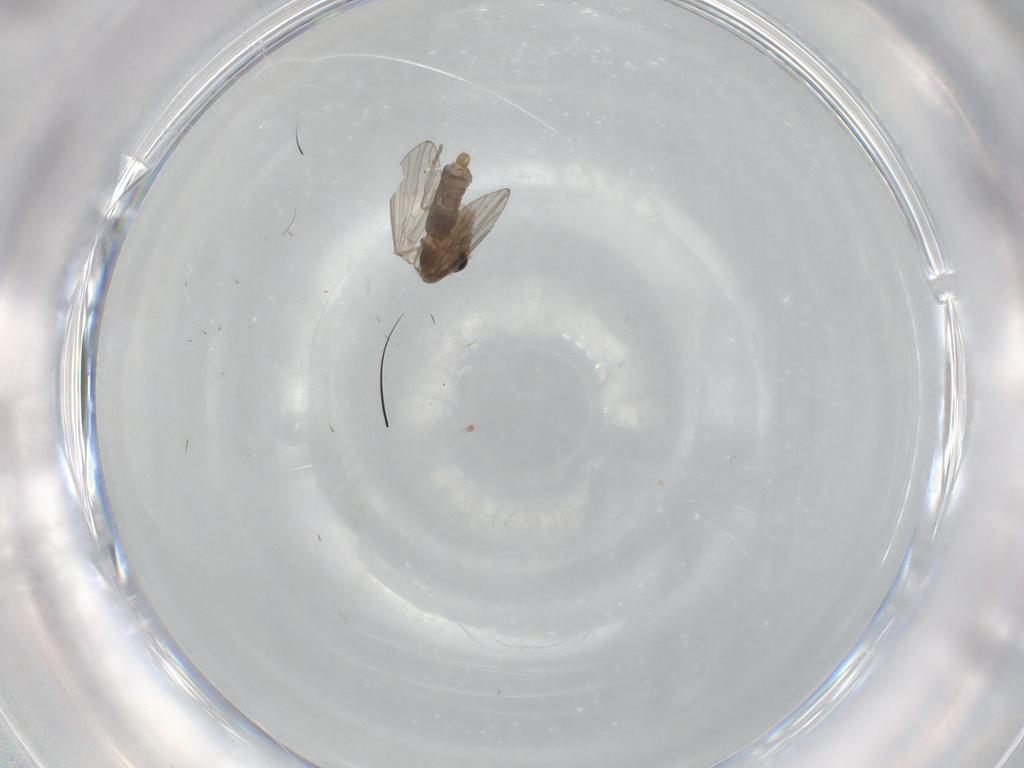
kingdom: Animalia
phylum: Arthropoda
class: Insecta
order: Diptera
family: Psychodidae
